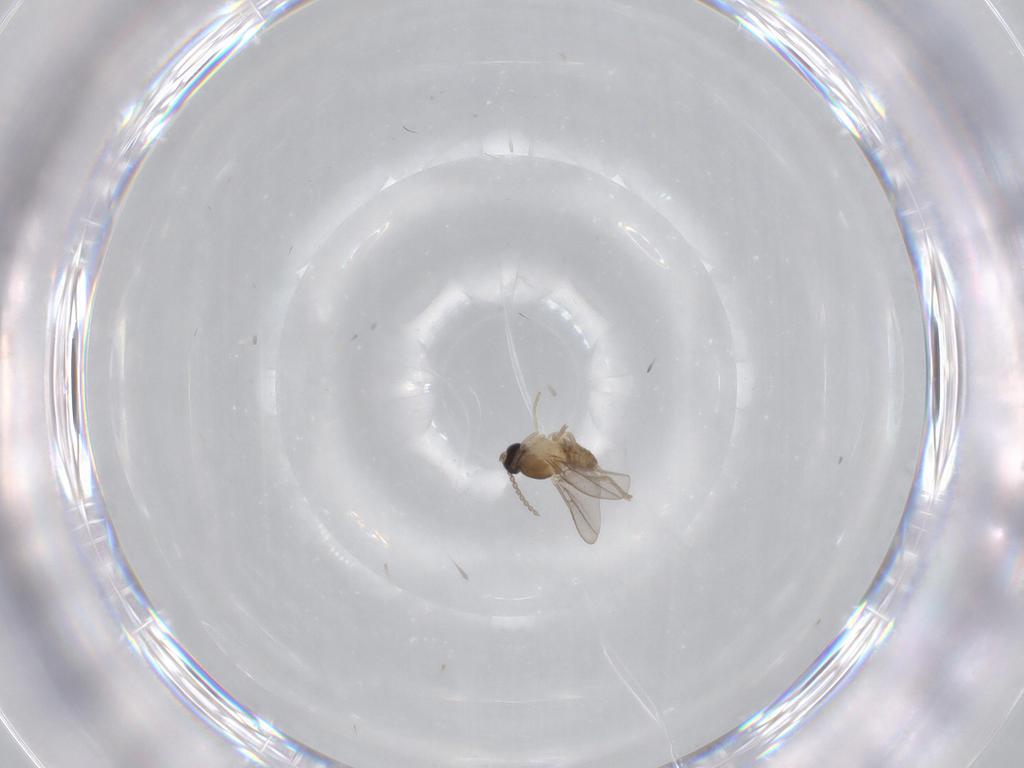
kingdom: Animalia
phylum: Arthropoda
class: Insecta
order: Diptera
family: Cecidomyiidae
